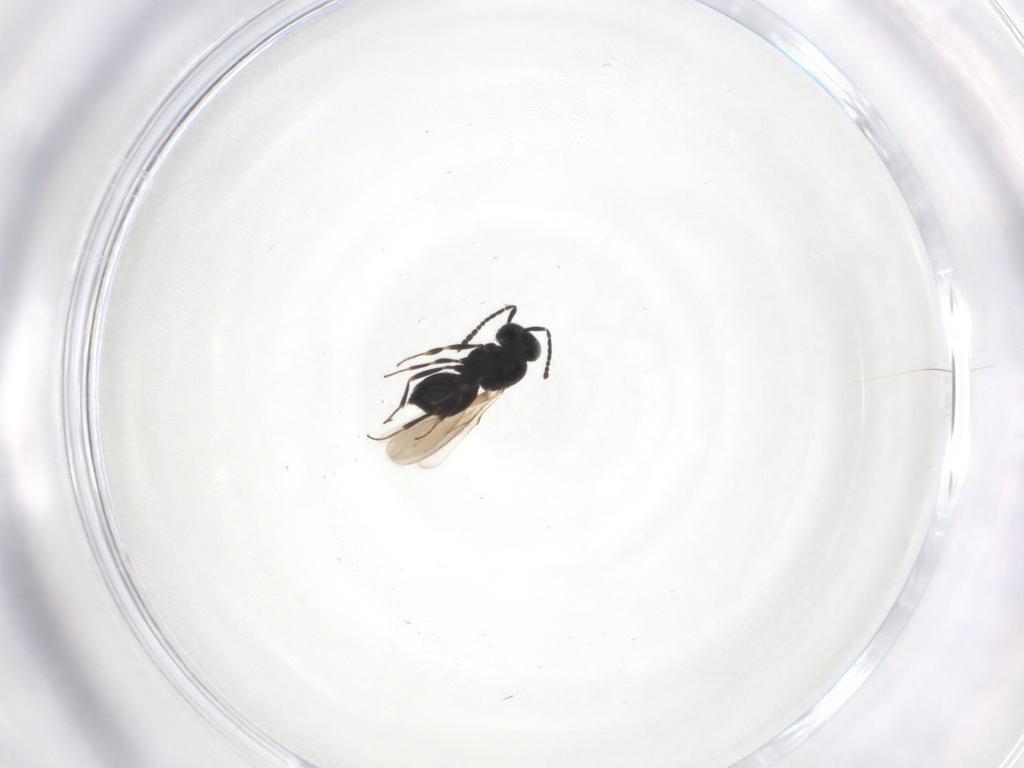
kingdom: Animalia
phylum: Arthropoda
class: Insecta
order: Hymenoptera
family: Scelionidae
